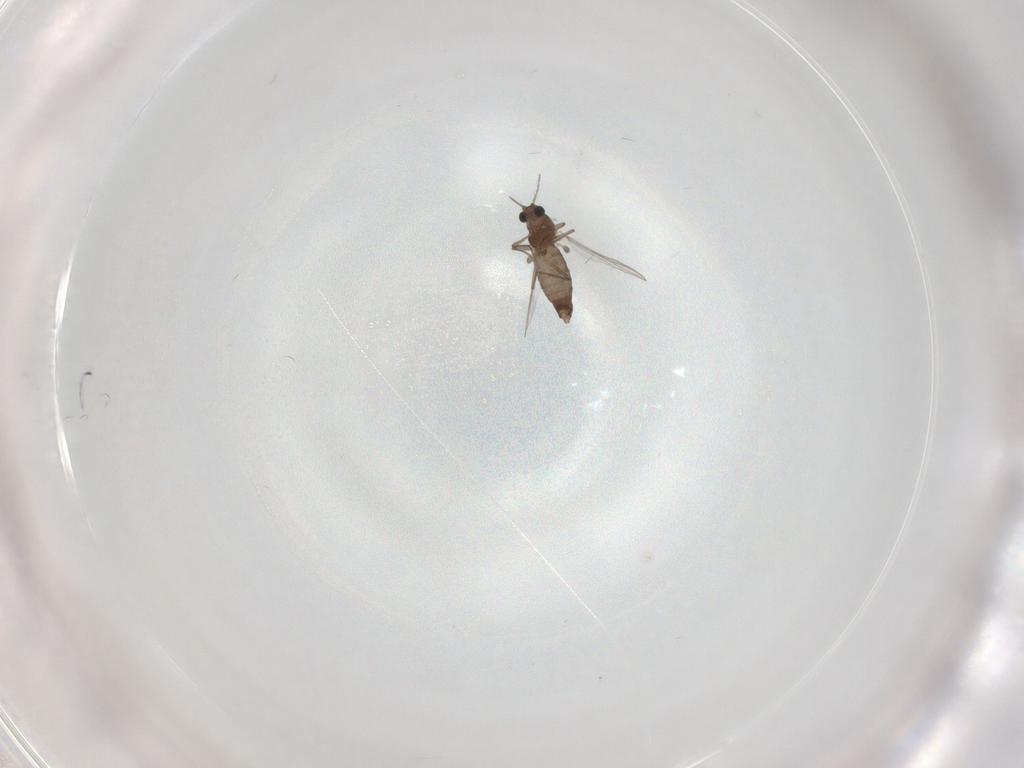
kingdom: Animalia
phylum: Arthropoda
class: Insecta
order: Diptera
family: Chironomidae
